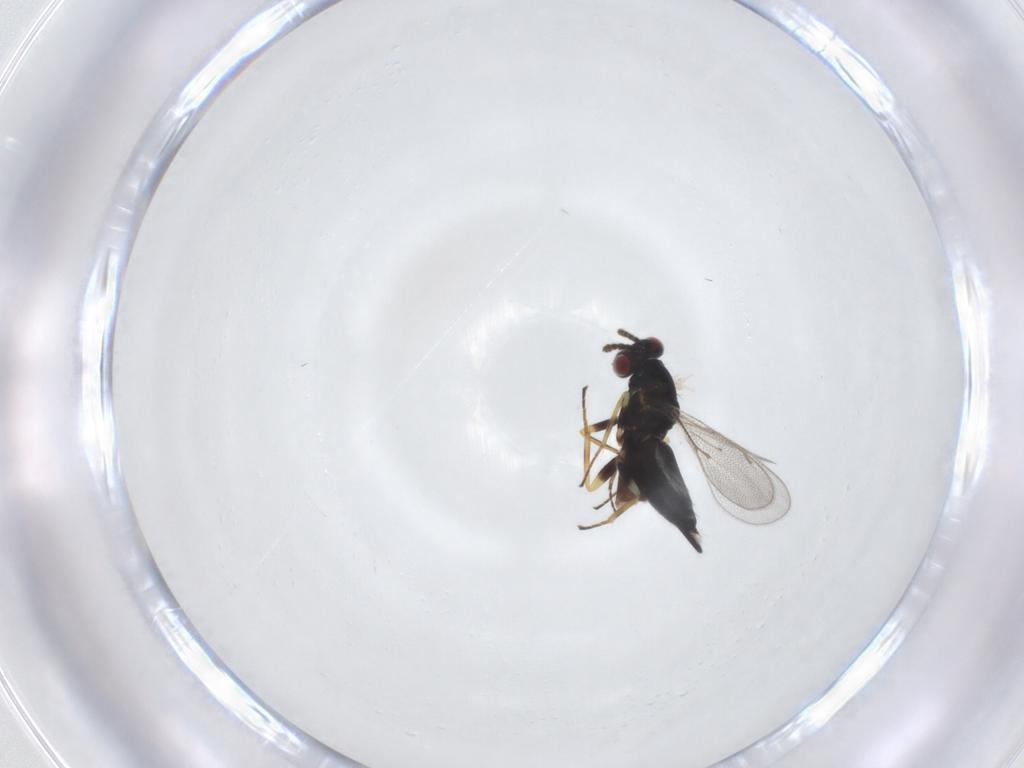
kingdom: Animalia
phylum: Arthropoda
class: Insecta
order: Hymenoptera
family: Eulophidae
